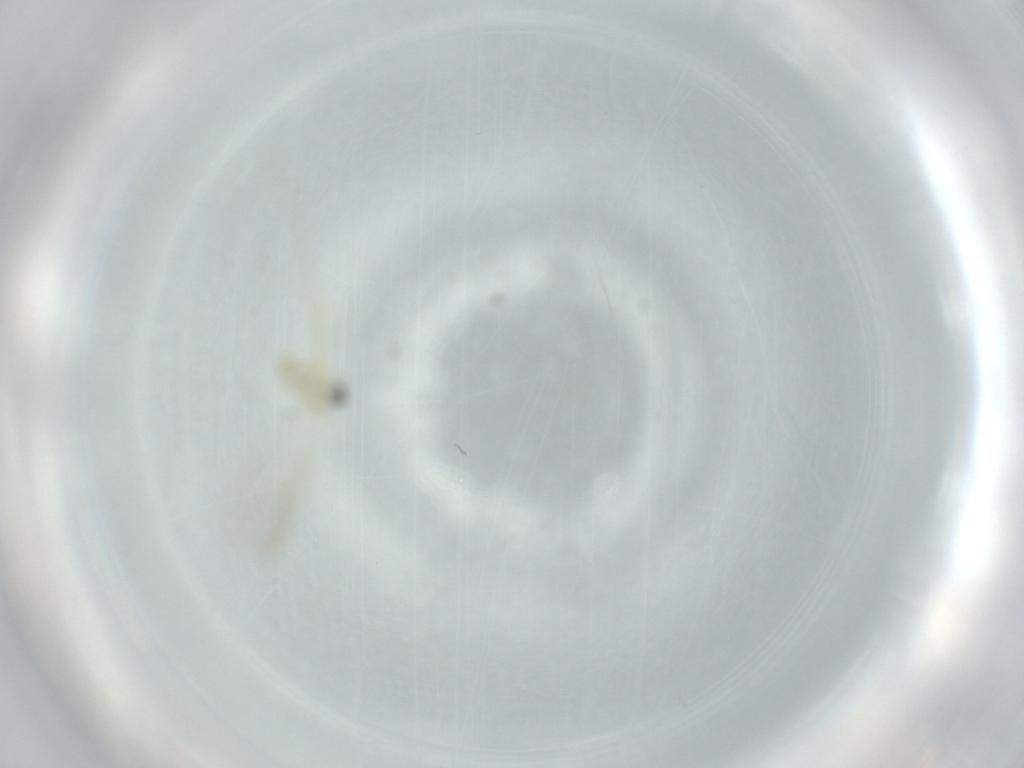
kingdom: Animalia
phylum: Arthropoda
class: Insecta
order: Diptera
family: Cecidomyiidae
